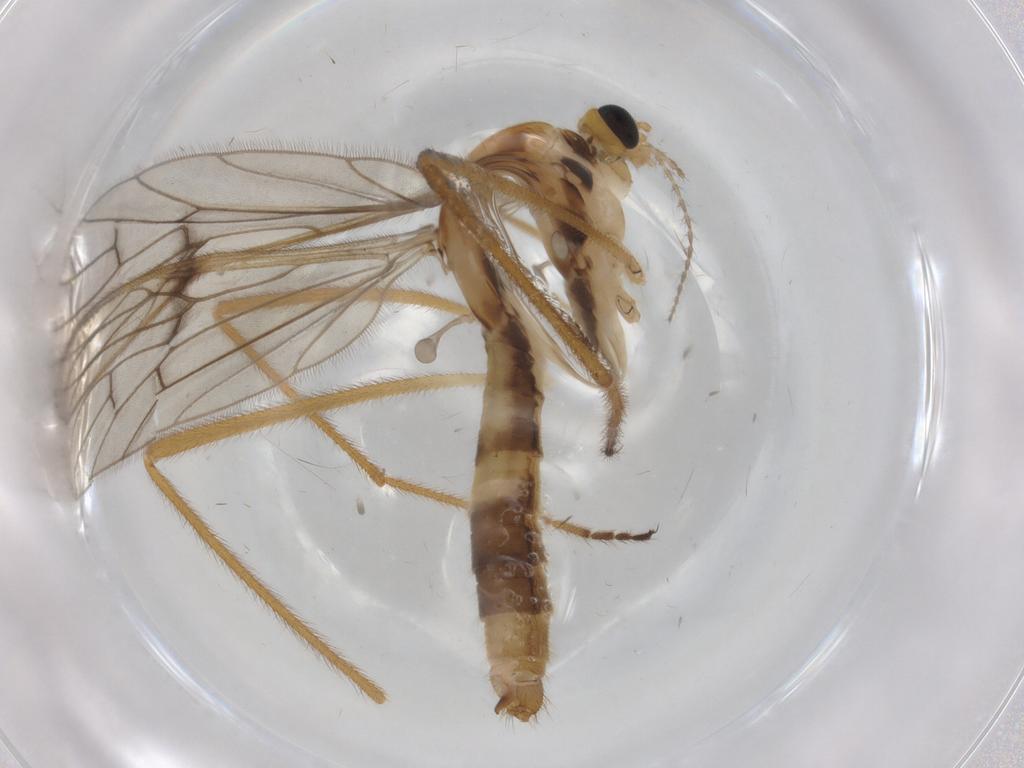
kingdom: Animalia
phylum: Arthropoda
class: Insecta
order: Diptera
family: Limoniidae
